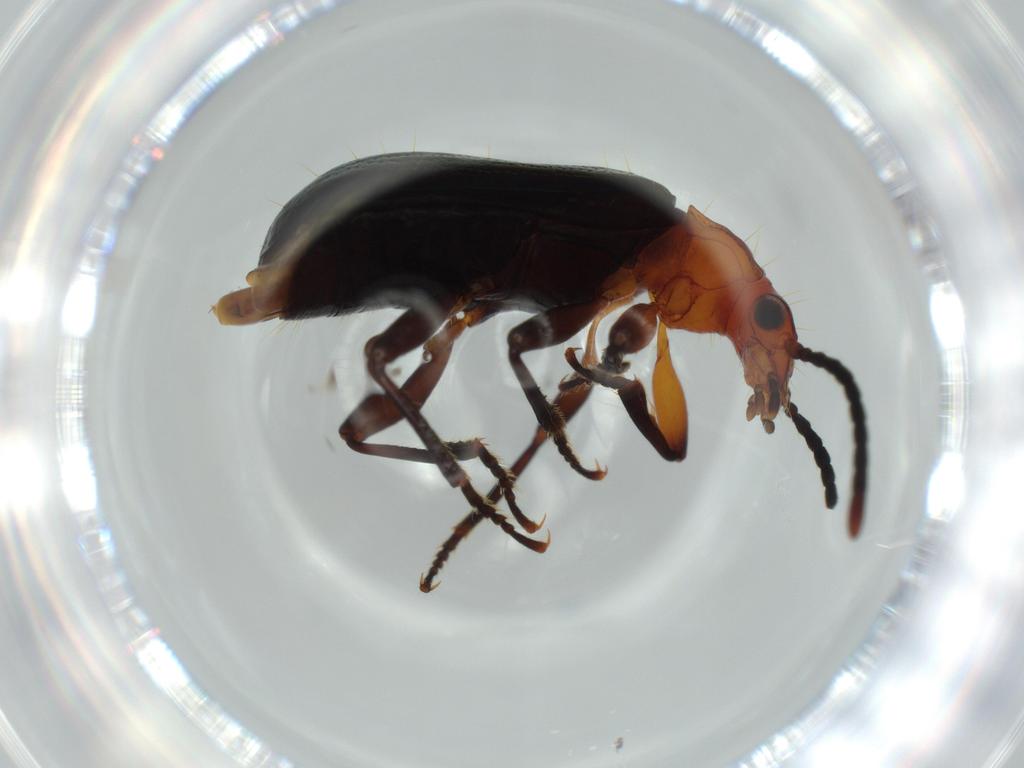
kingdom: Animalia
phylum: Arthropoda
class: Insecta
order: Coleoptera
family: Carabidae
